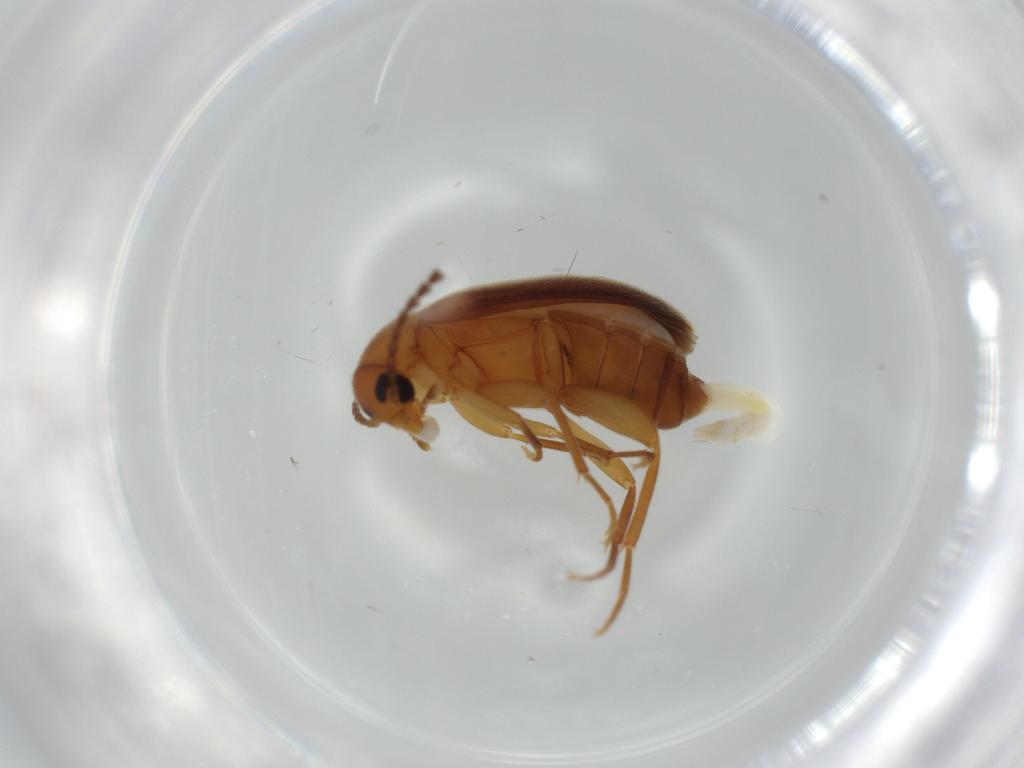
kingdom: Animalia
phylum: Arthropoda
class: Insecta
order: Coleoptera
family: Scraptiidae
